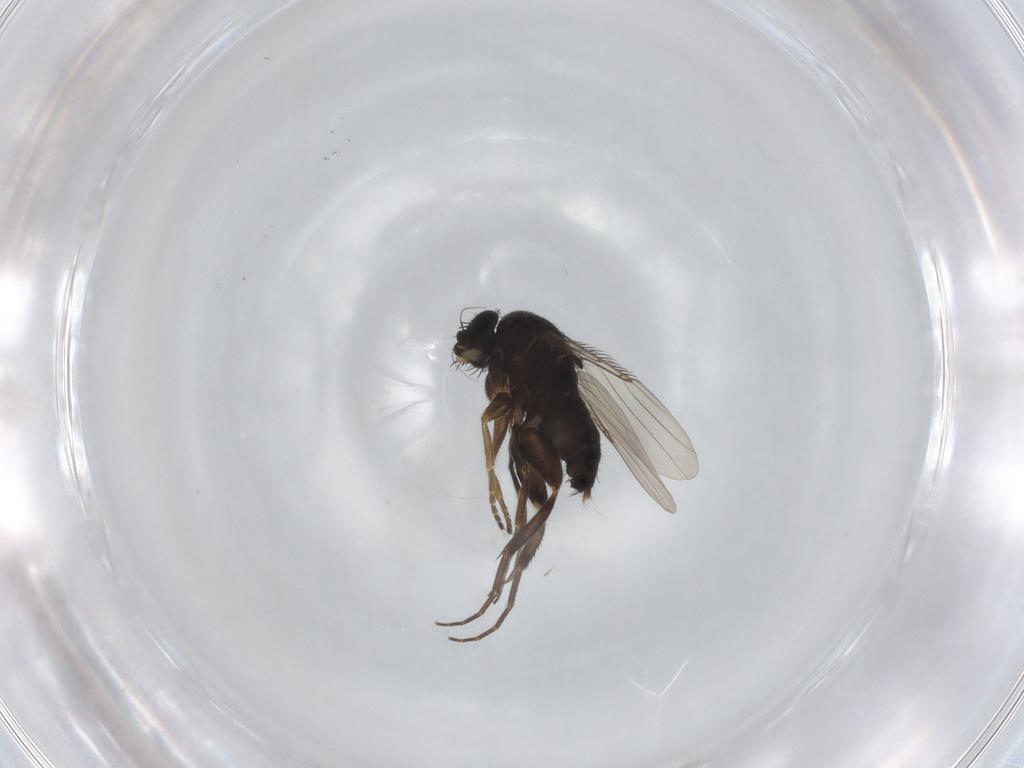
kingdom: Animalia
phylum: Arthropoda
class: Insecta
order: Diptera
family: Phoridae
